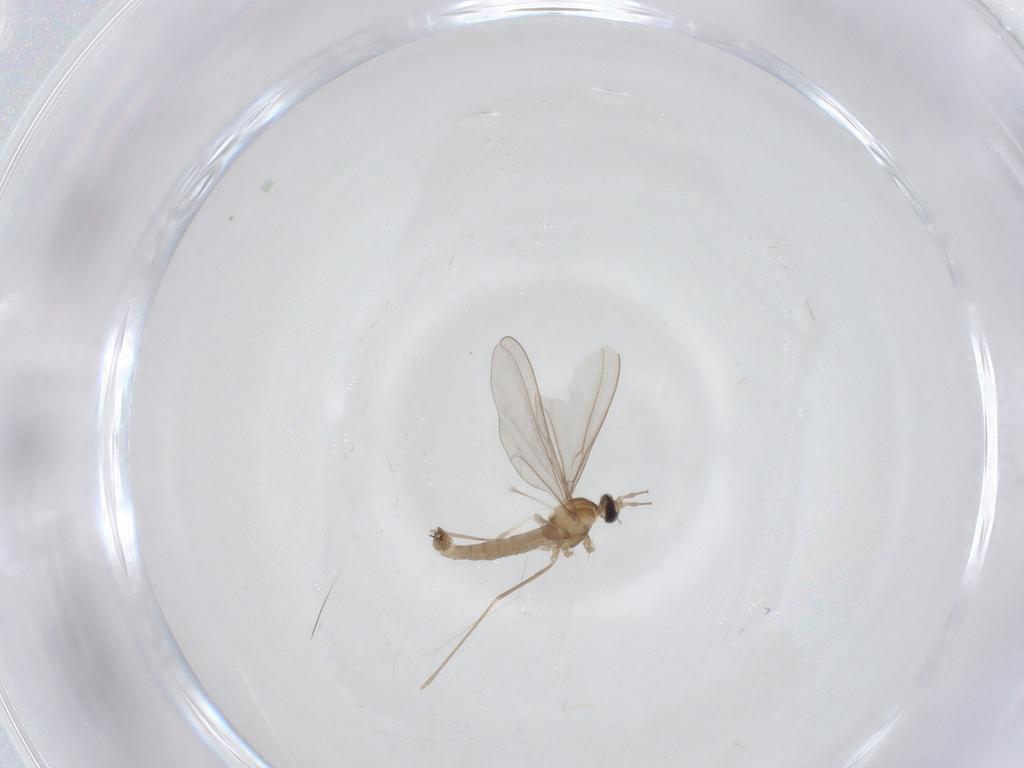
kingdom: Animalia
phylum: Arthropoda
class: Insecta
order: Diptera
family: Phoridae
